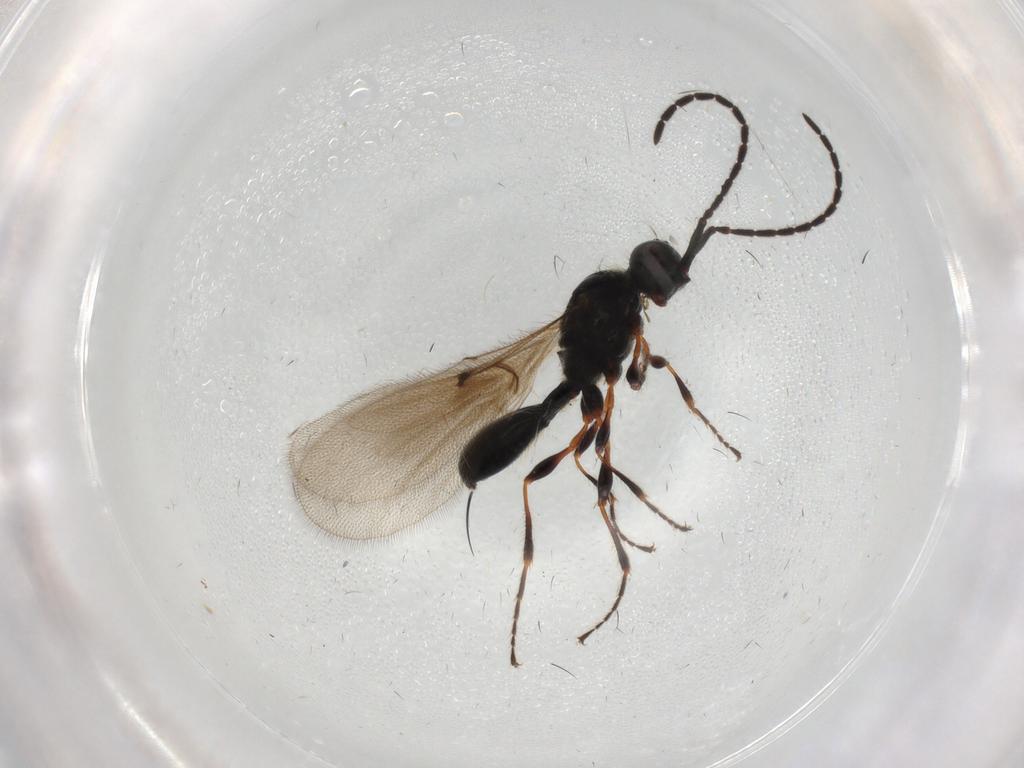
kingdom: Animalia
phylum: Arthropoda
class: Insecta
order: Hymenoptera
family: Diapriidae
